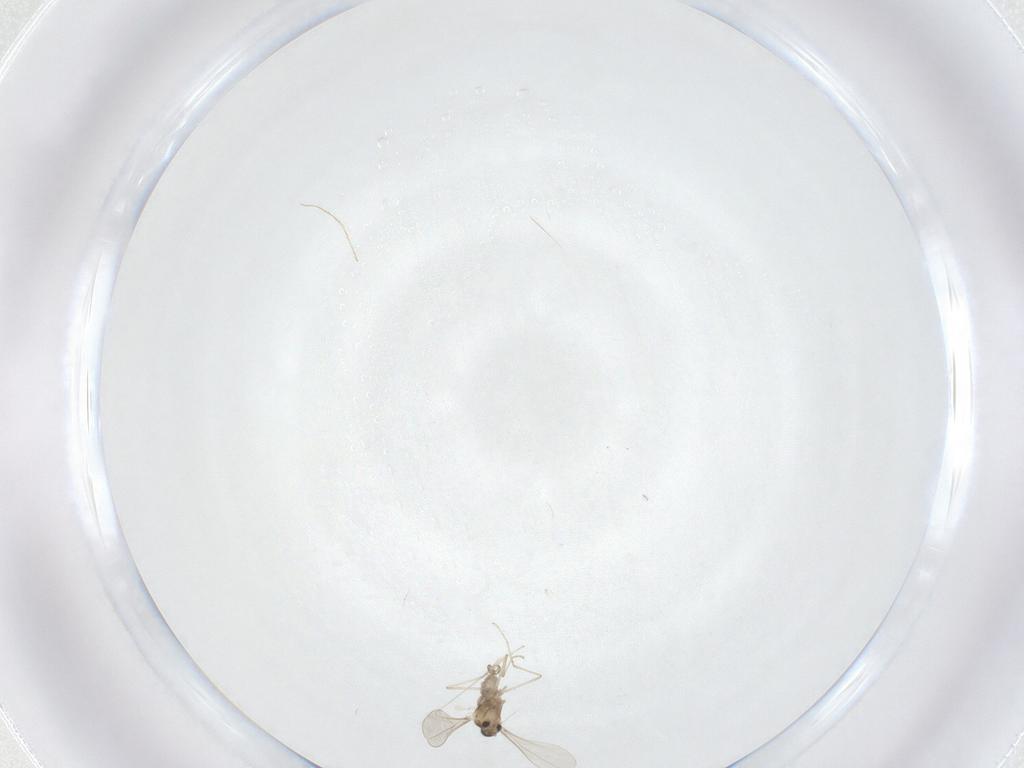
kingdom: Animalia
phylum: Arthropoda
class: Insecta
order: Diptera
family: Cecidomyiidae
